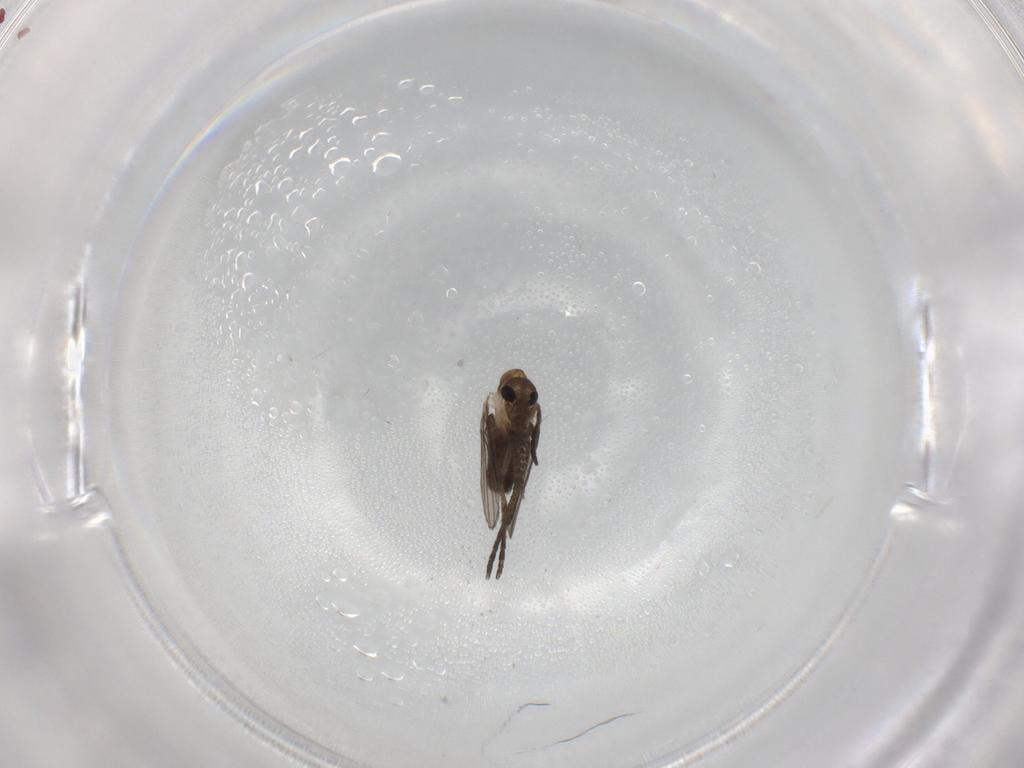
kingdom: Animalia
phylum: Arthropoda
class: Insecta
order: Diptera
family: Psychodidae
